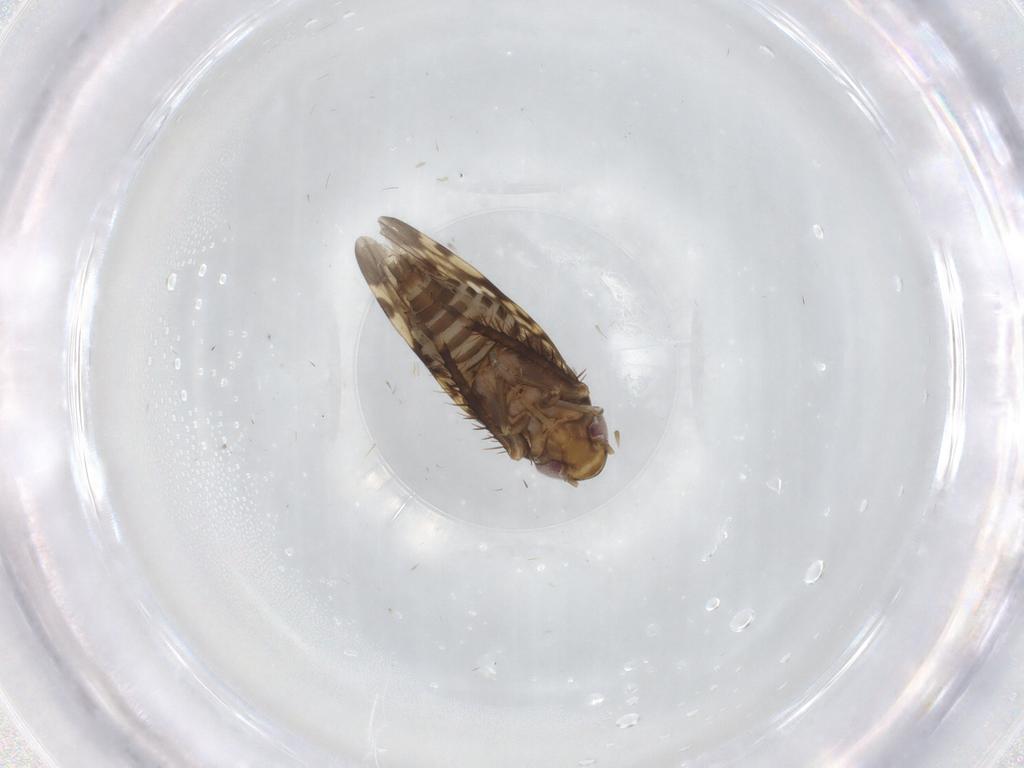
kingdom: Animalia
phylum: Arthropoda
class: Insecta
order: Hemiptera
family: Cicadellidae
